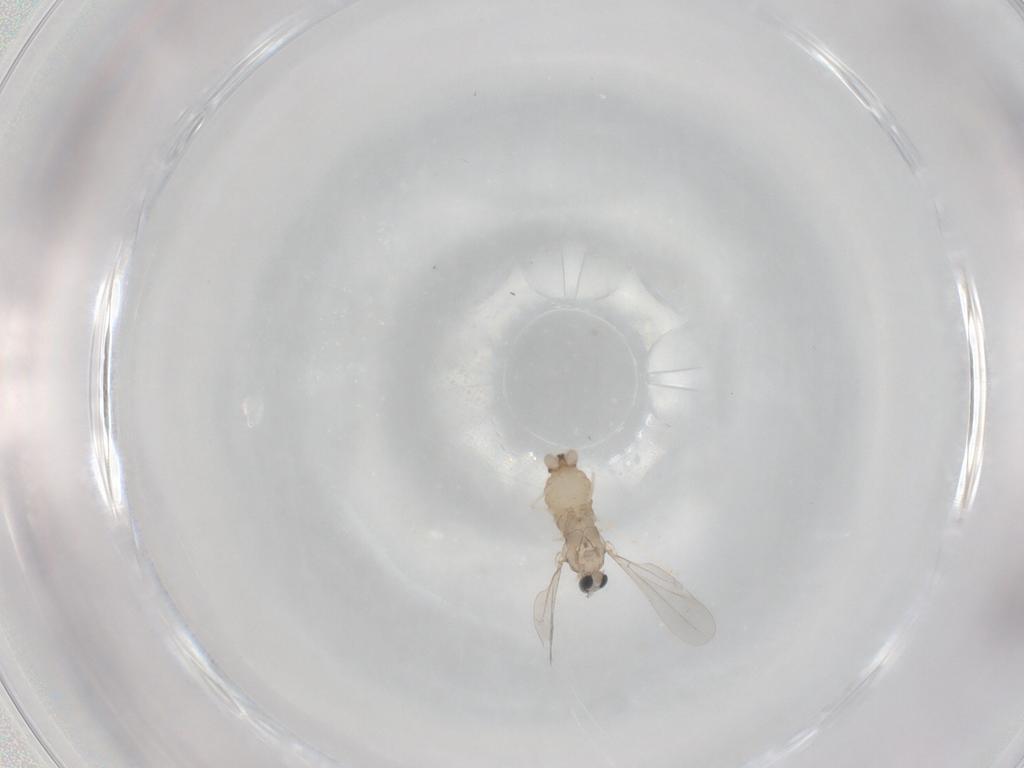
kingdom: Animalia
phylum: Arthropoda
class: Insecta
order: Diptera
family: Cecidomyiidae
